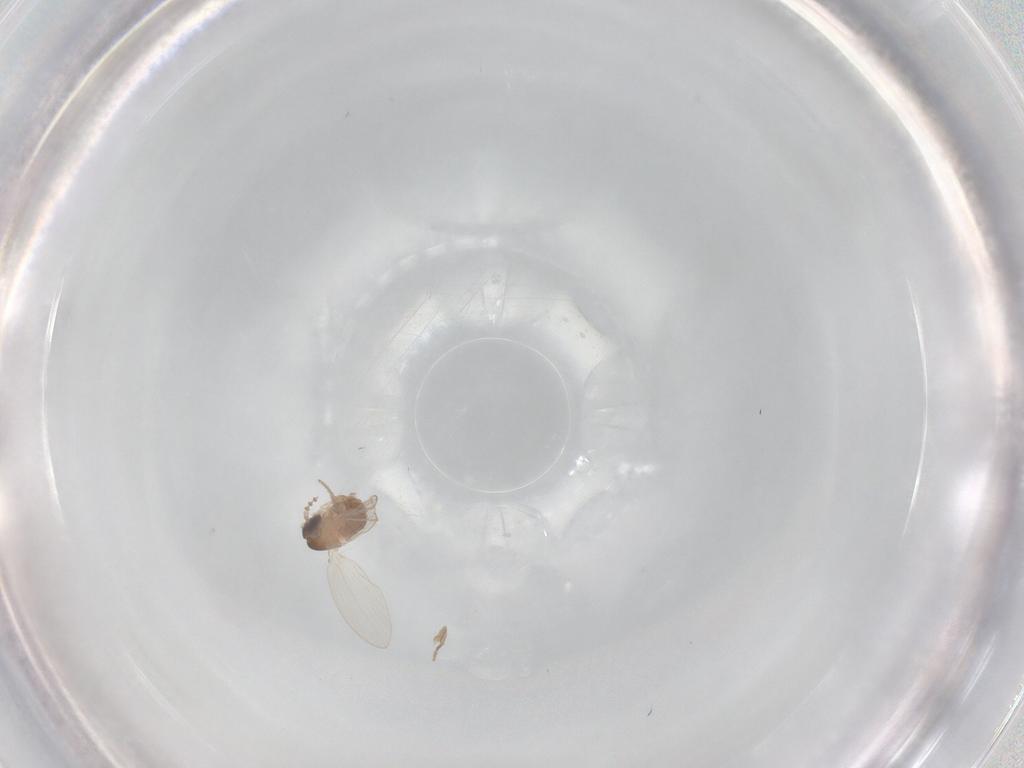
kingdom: Animalia
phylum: Arthropoda
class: Insecta
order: Diptera
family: Psychodidae
